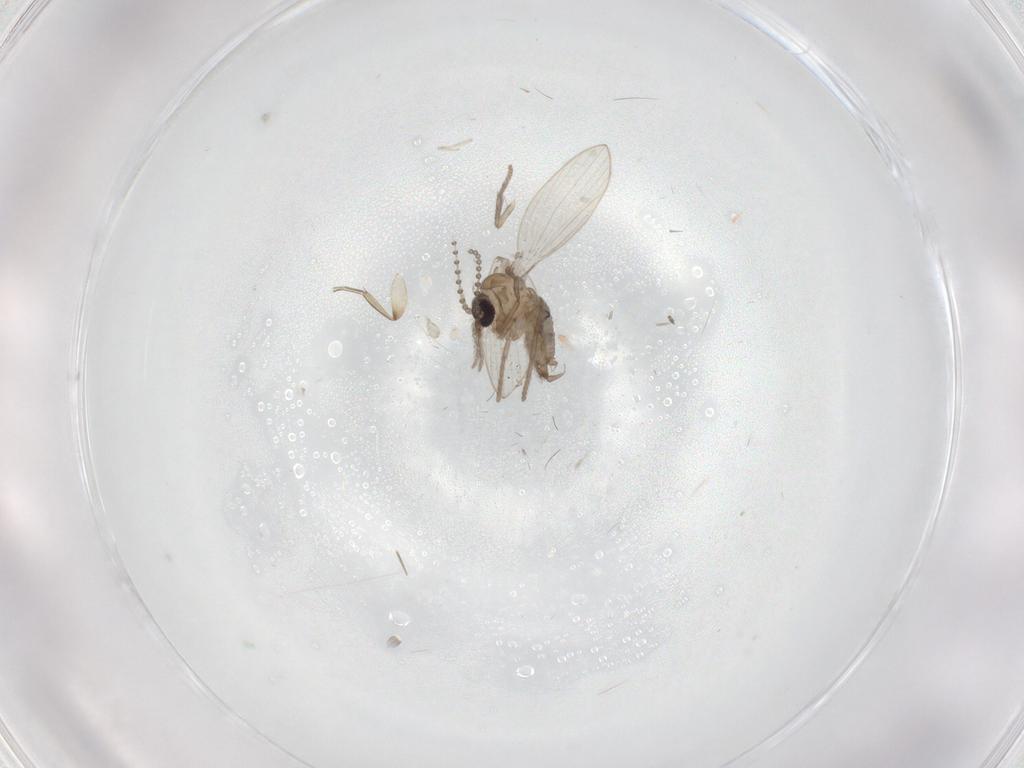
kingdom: Animalia
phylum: Arthropoda
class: Insecta
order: Diptera
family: Psychodidae
